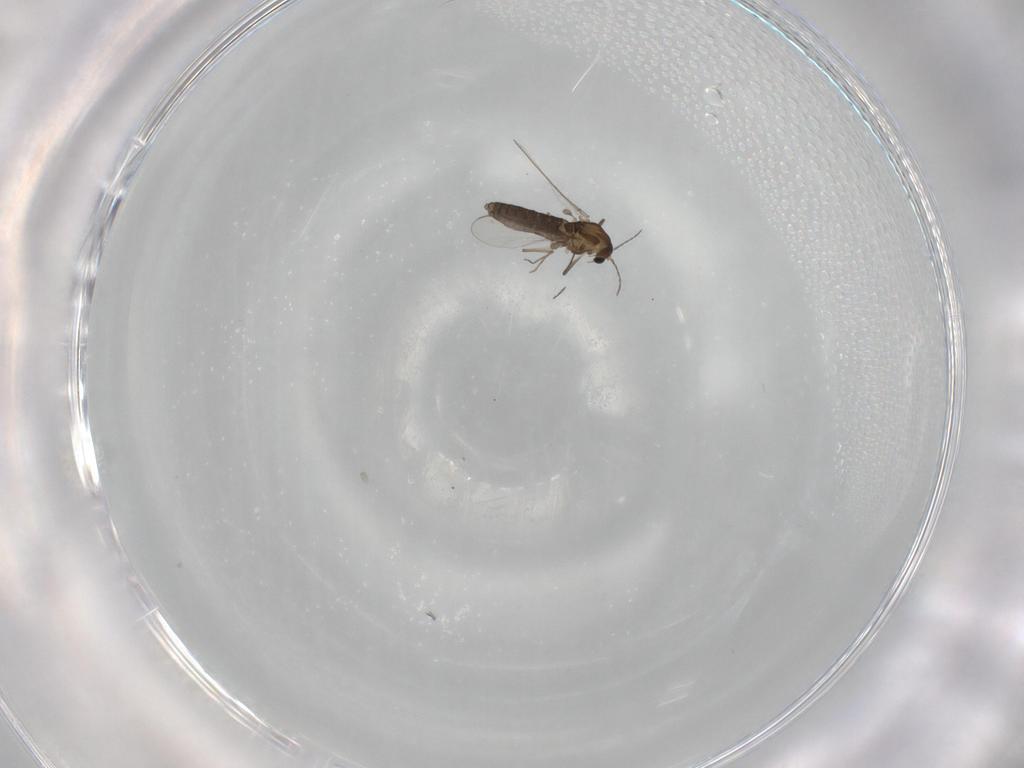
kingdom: Animalia
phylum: Arthropoda
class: Insecta
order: Diptera
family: Chironomidae
